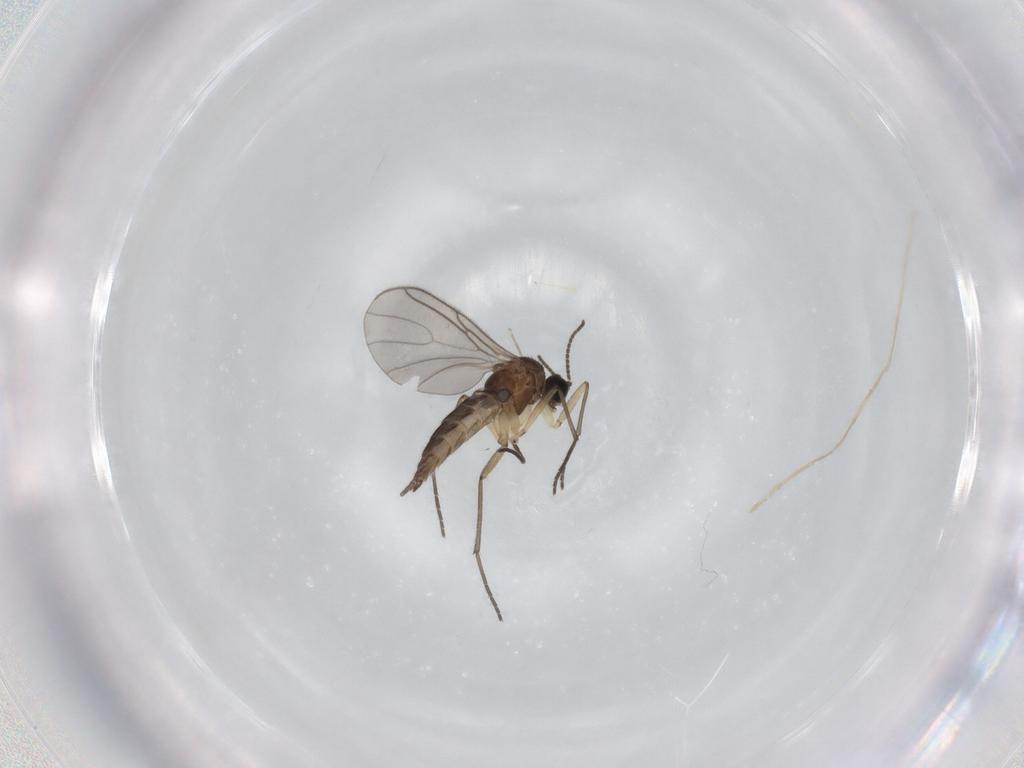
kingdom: Animalia
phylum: Arthropoda
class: Insecta
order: Diptera
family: Sciaridae
